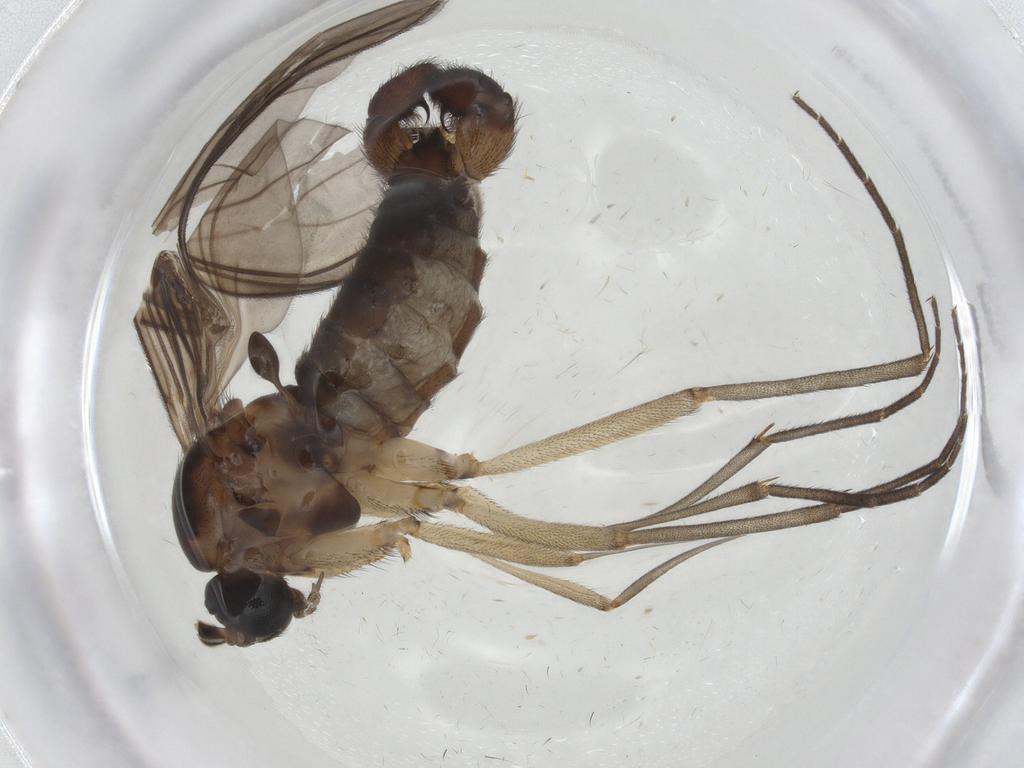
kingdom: Animalia
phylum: Arthropoda
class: Insecta
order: Diptera
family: Sciaridae
